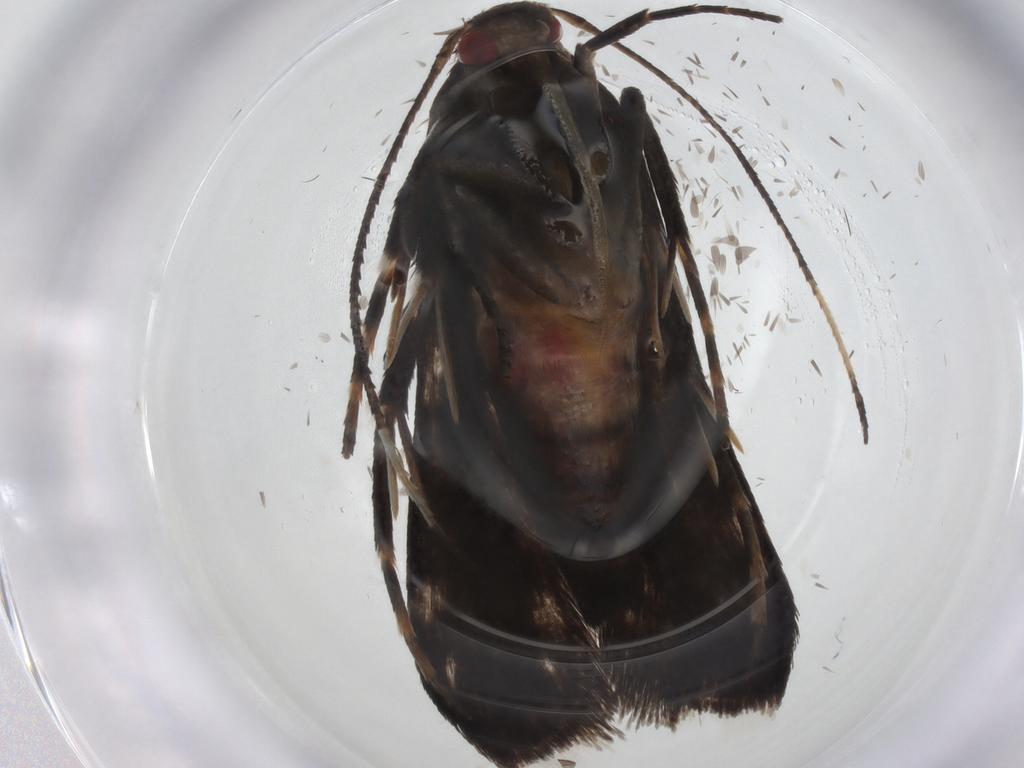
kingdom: Animalia
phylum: Arthropoda
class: Insecta
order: Lepidoptera
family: Gelechiidae
